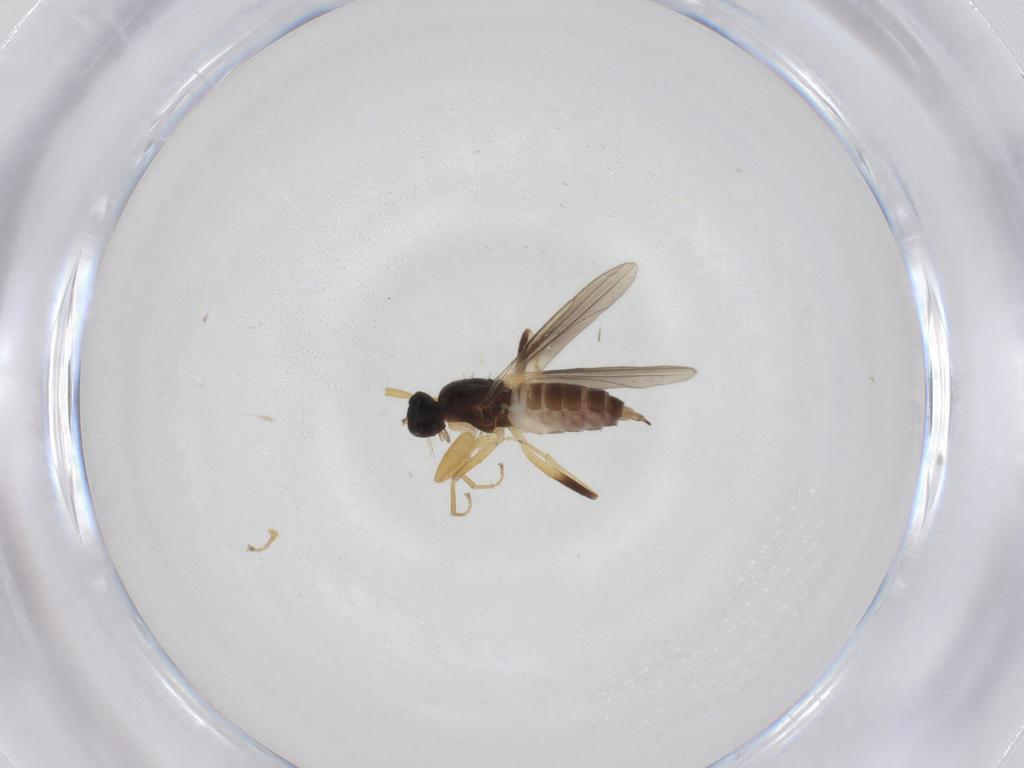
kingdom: Animalia
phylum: Arthropoda
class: Insecta
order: Diptera
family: Hybotidae
